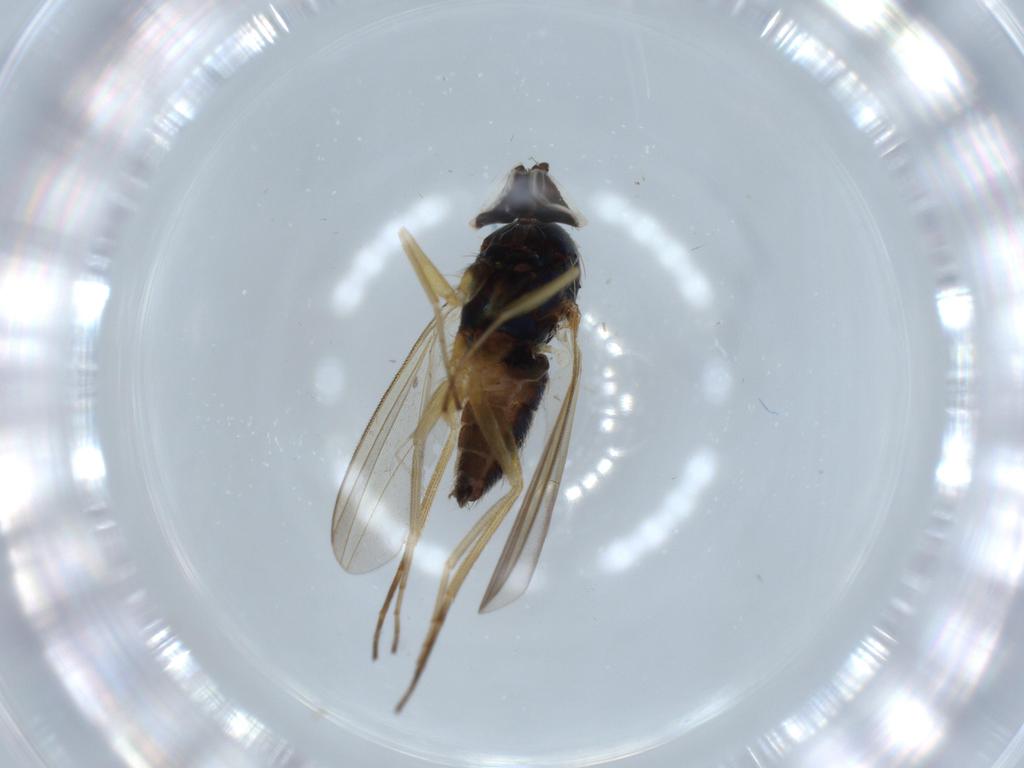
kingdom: Animalia
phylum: Arthropoda
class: Insecta
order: Diptera
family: Dolichopodidae
